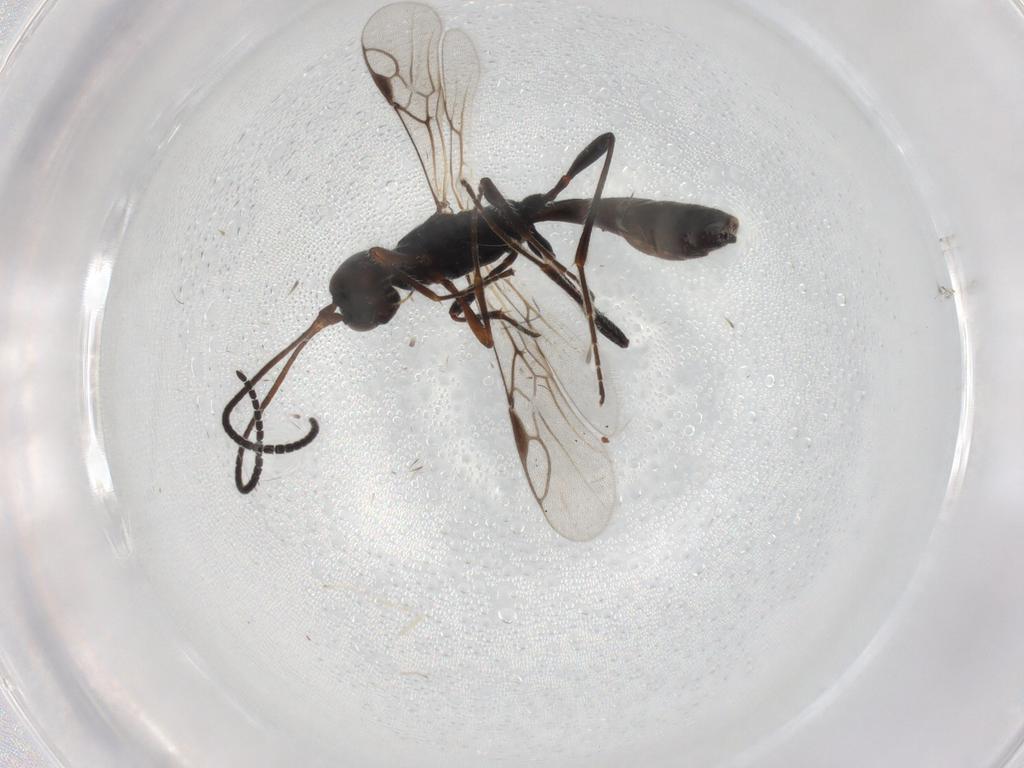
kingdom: Animalia
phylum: Arthropoda
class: Insecta
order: Hymenoptera
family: Braconidae
